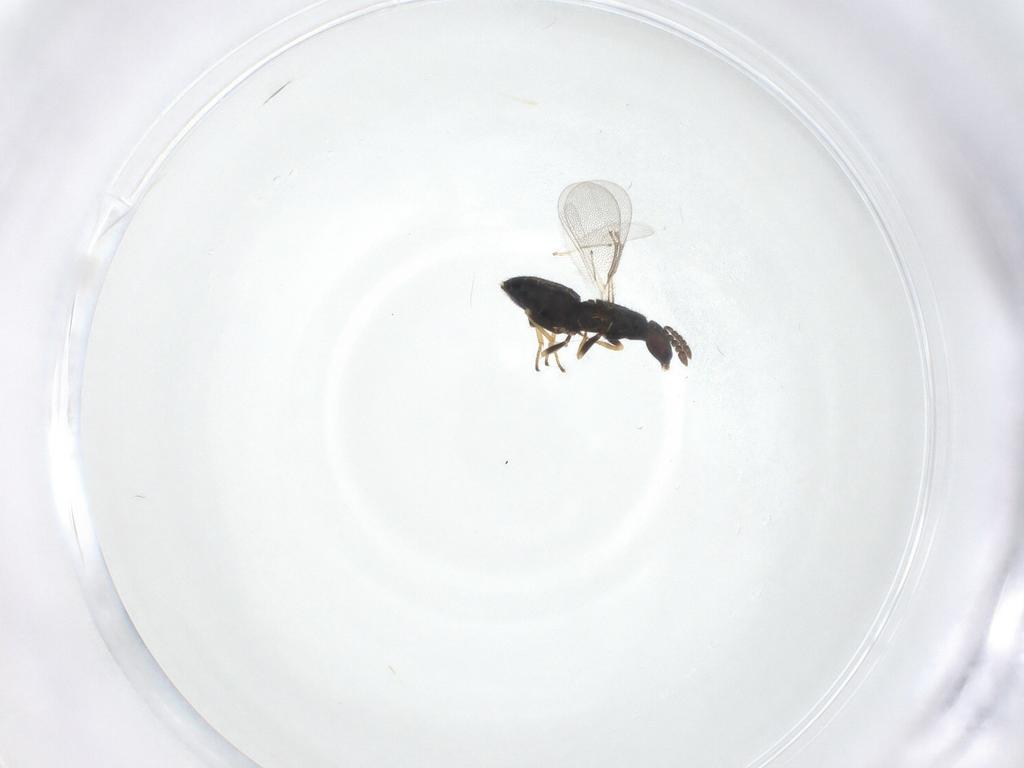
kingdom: Animalia
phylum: Arthropoda
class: Insecta
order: Hymenoptera
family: Eulophidae
